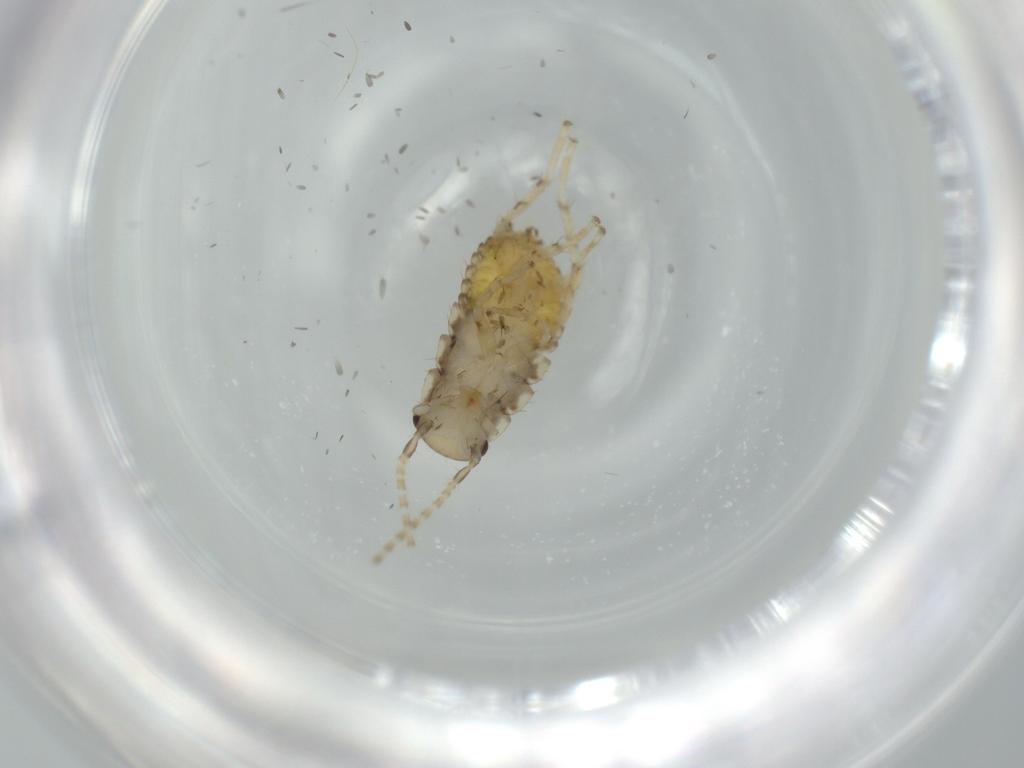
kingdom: Animalia
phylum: Arthropoda
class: Insecta
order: Blattodea
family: Ectobiidae
